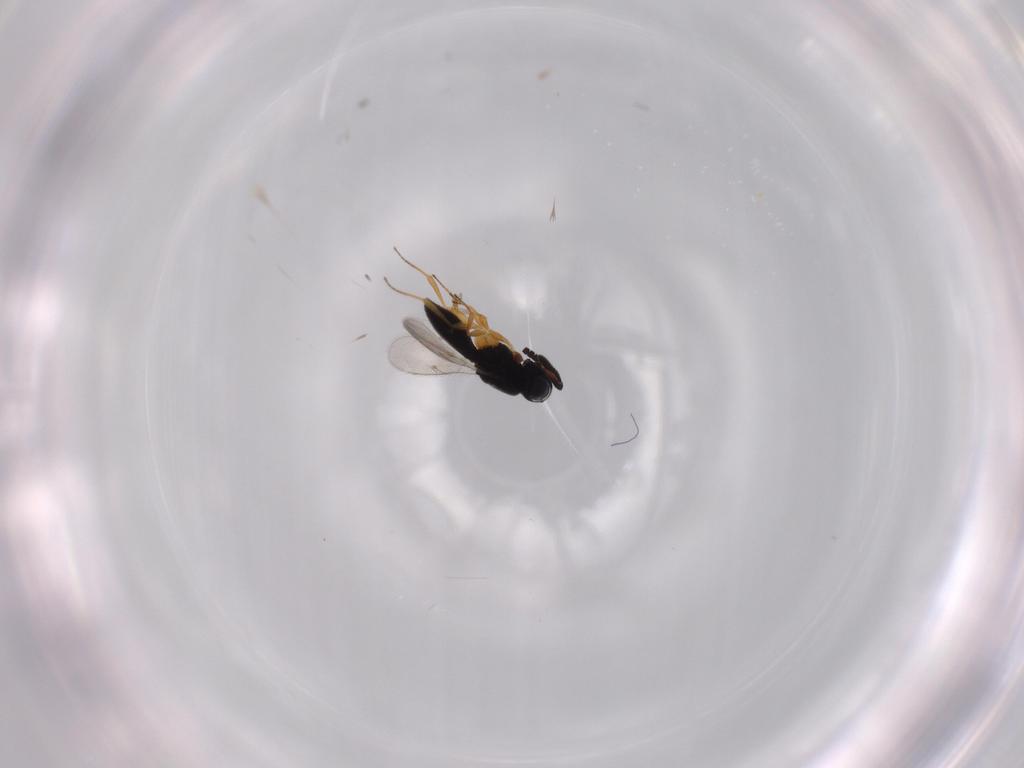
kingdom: Animalia
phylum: Arthropoda
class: Insecta
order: Hymenoptera
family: Scelionidae
